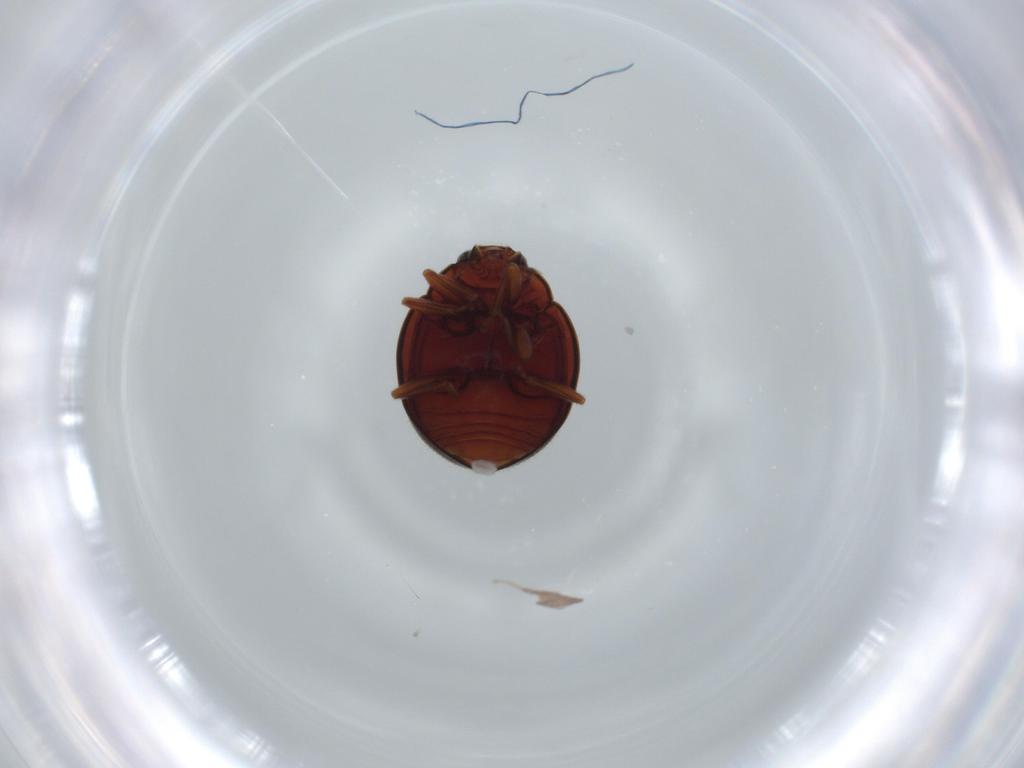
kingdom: Animalia
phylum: Arthropoda
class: Insecta
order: Coleoptera
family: Coccinellidae
